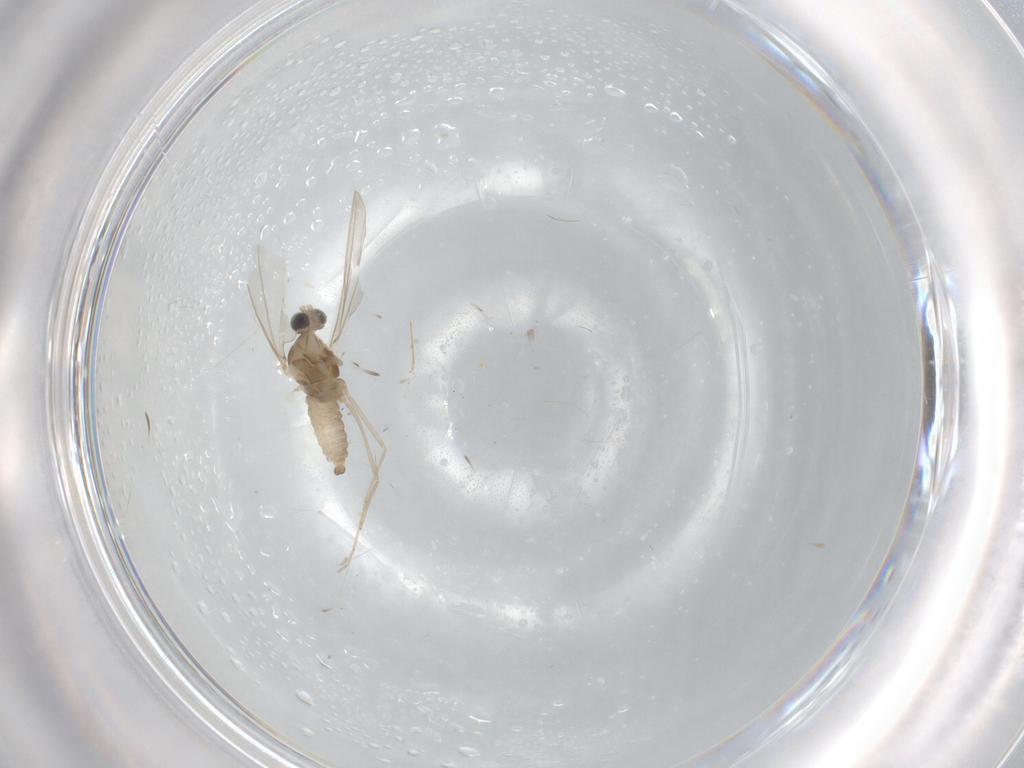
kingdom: Animalia
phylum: Arthropoda
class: Insecta
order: Diptera
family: Cecidomyiidae
